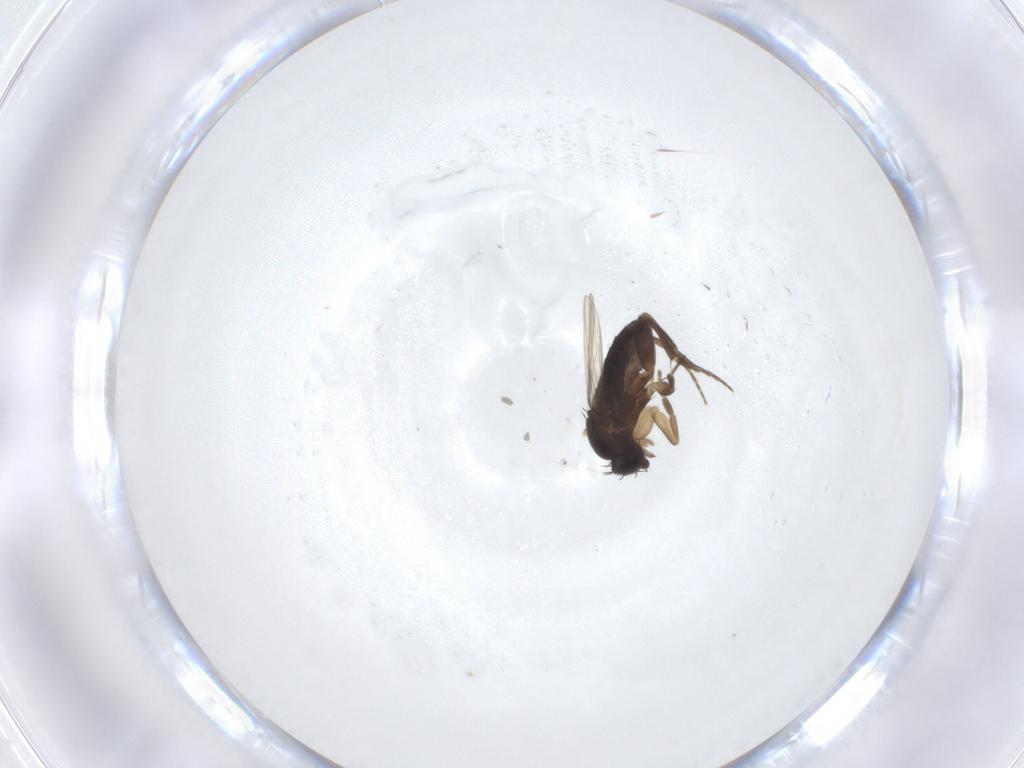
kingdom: Animalia
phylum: Arthropoda
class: Insecta
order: Diptera
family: Phoridae
